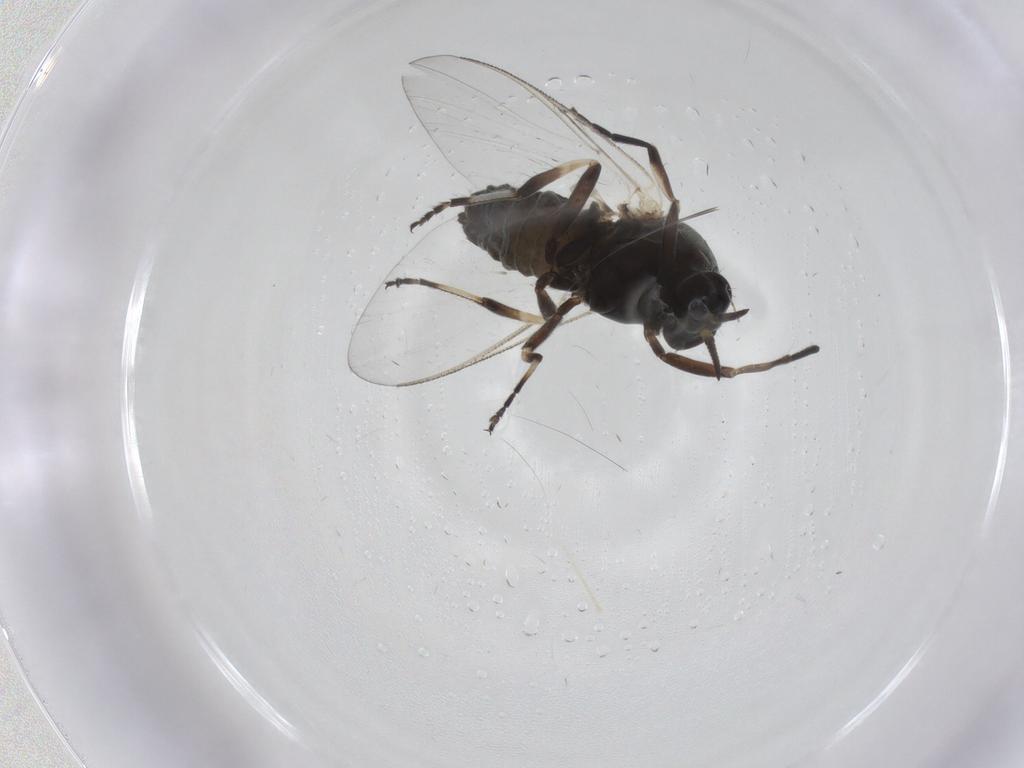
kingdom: Animalia
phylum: Arthropoda
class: Insecta
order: Diptera
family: Simuliidae
